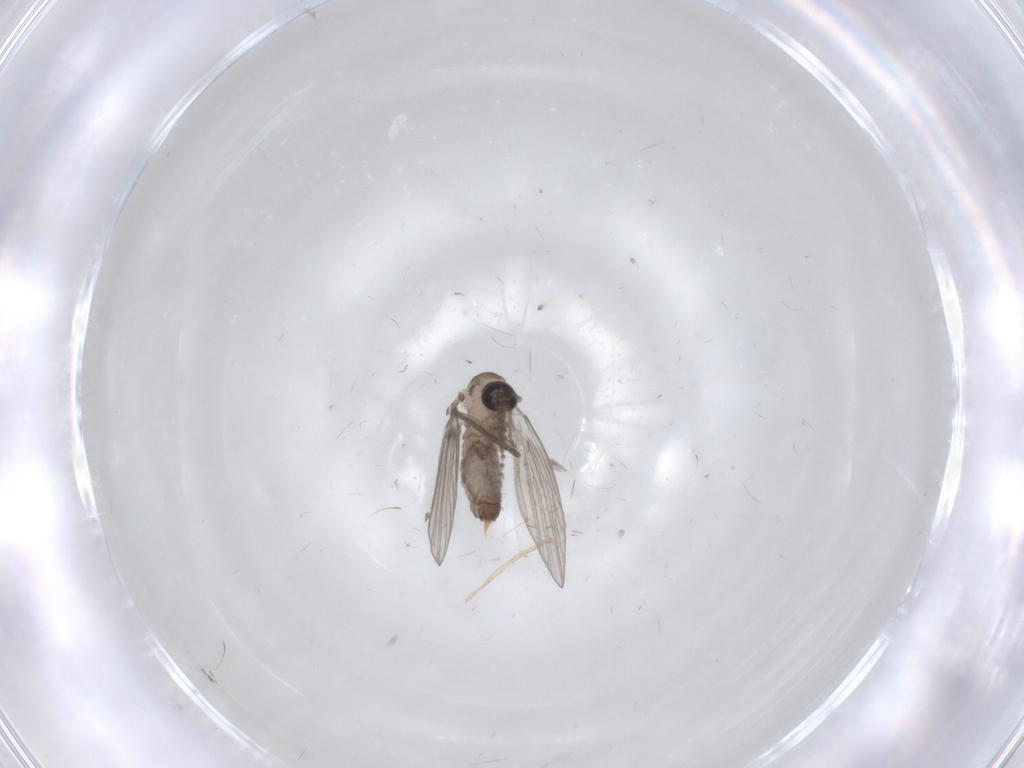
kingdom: Animalia
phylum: Arthropoda
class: Insecta
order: Diptera
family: Psychodidae
